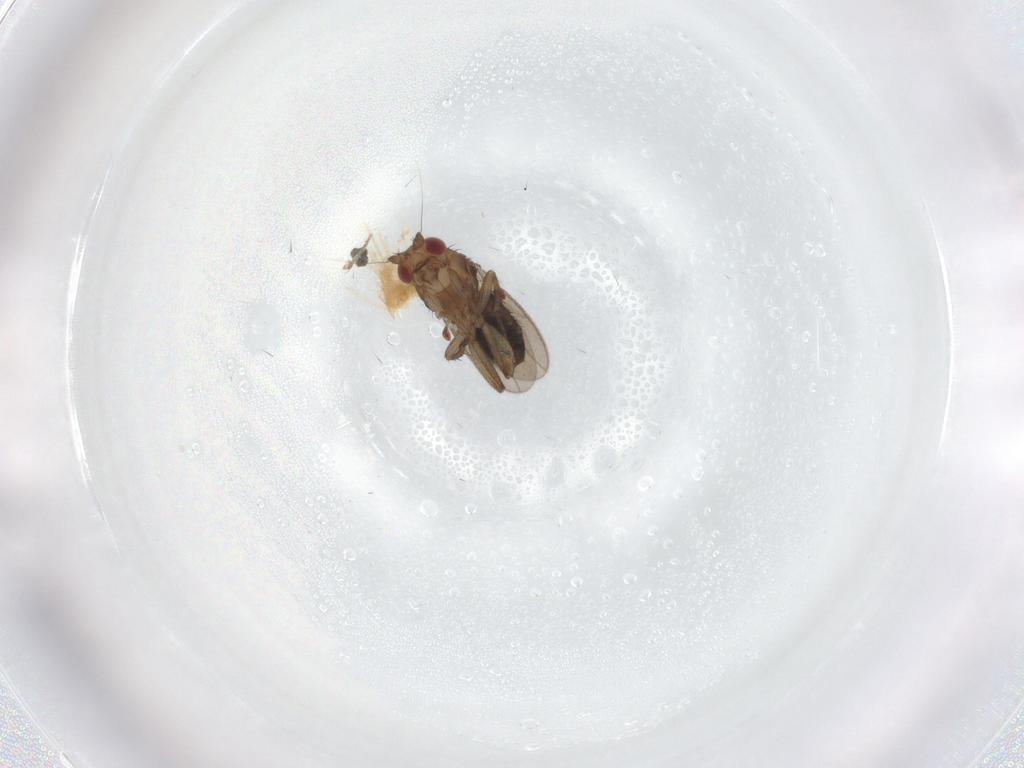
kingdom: Animalia
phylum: Arthropoda
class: Insecta
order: Diptera
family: Sphaeroceridae
